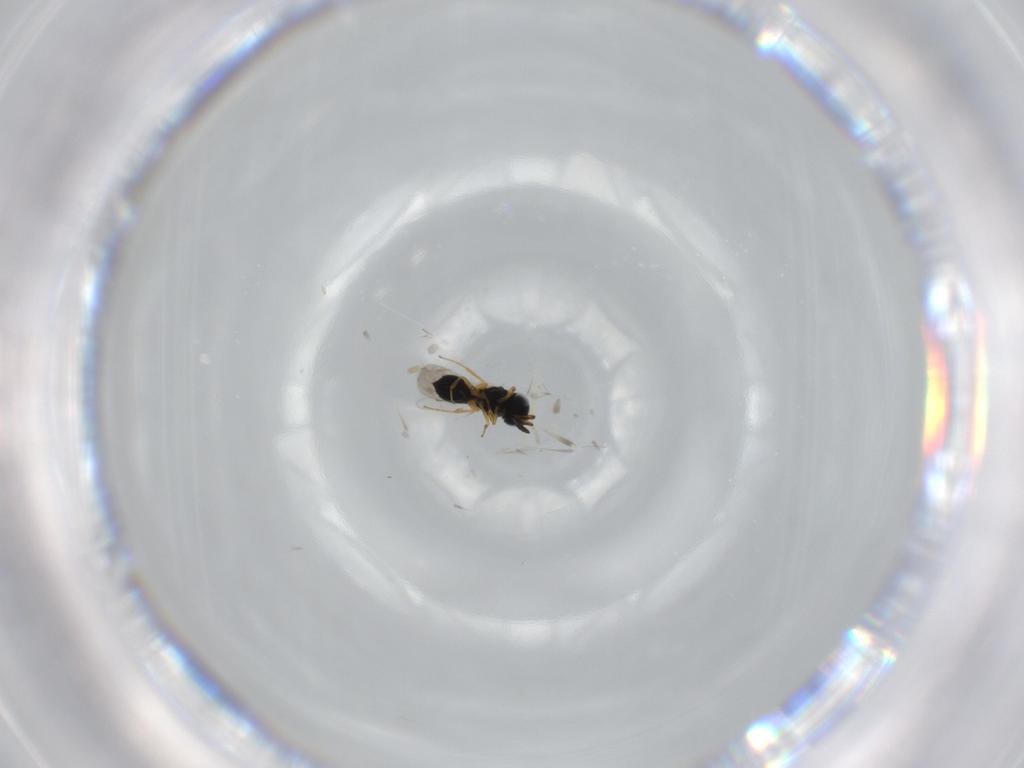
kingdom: Animalia
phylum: Arthropoda
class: Insecta
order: Hymenoptera
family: Scelionidae
